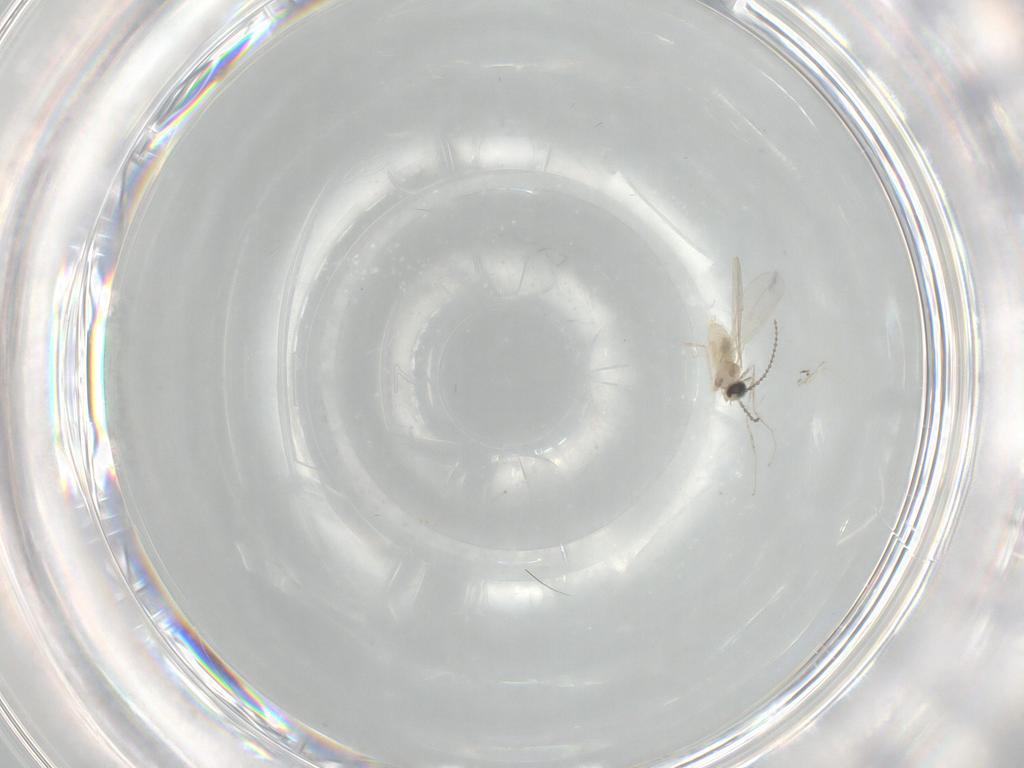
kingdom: Animalia
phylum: Arthropoda
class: Insecta
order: Diptera
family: Cecidomyiidae
